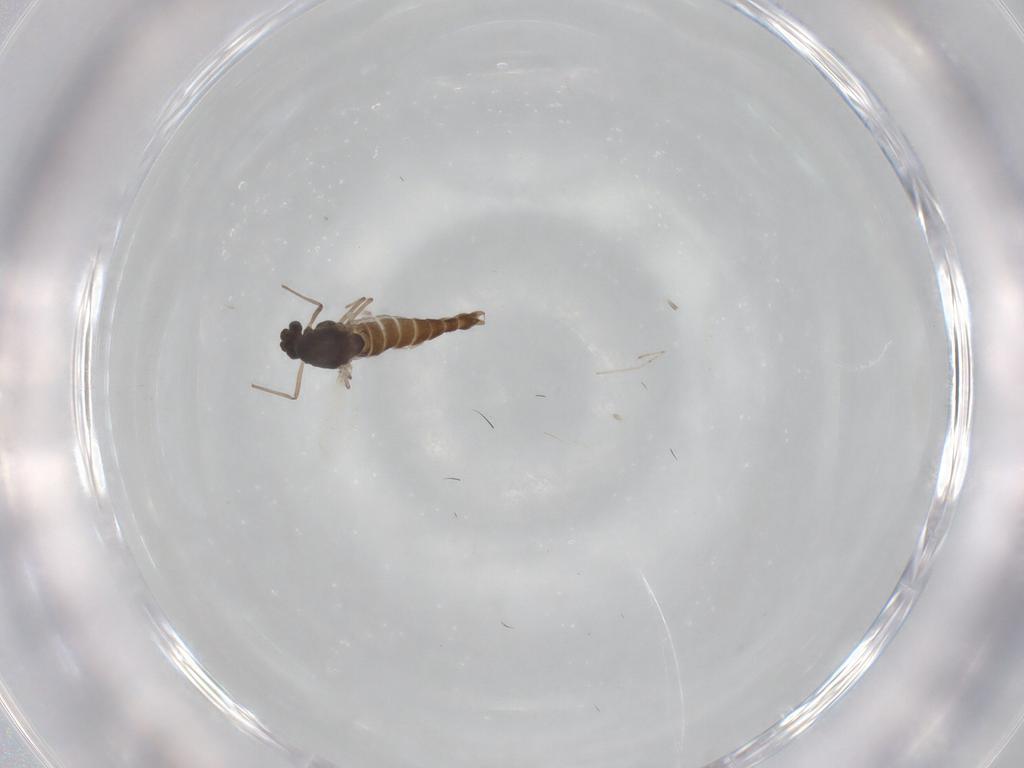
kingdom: Animalia
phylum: Arthropoda
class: Insecta
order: Diptera
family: Chironomidae
